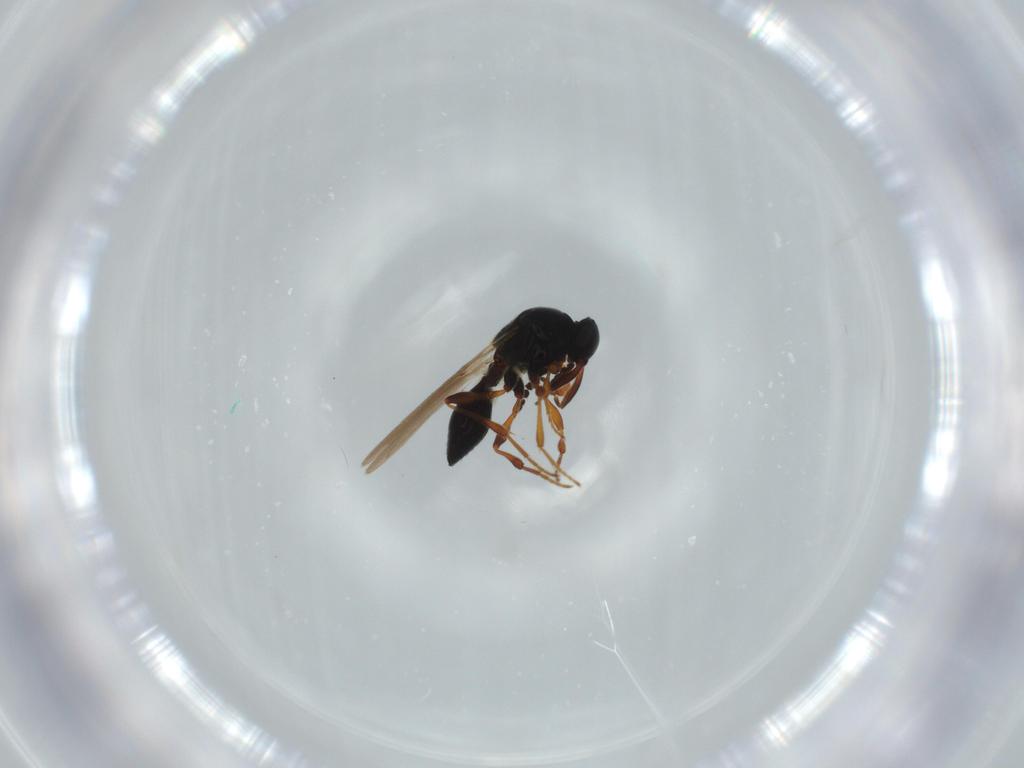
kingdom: Animalia
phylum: Arthropoda
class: Insecta
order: Hymenoptera
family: Platygastridae
